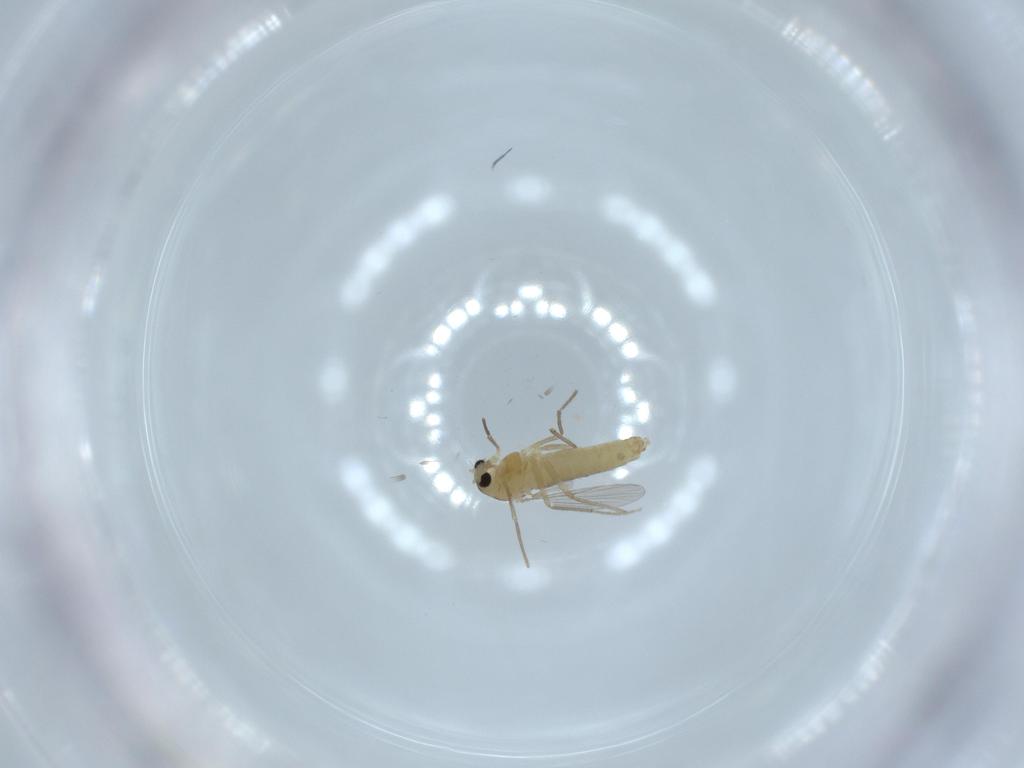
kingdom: Animalia
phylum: Arthropoda
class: Insecta
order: Diptera
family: Chironomidae
